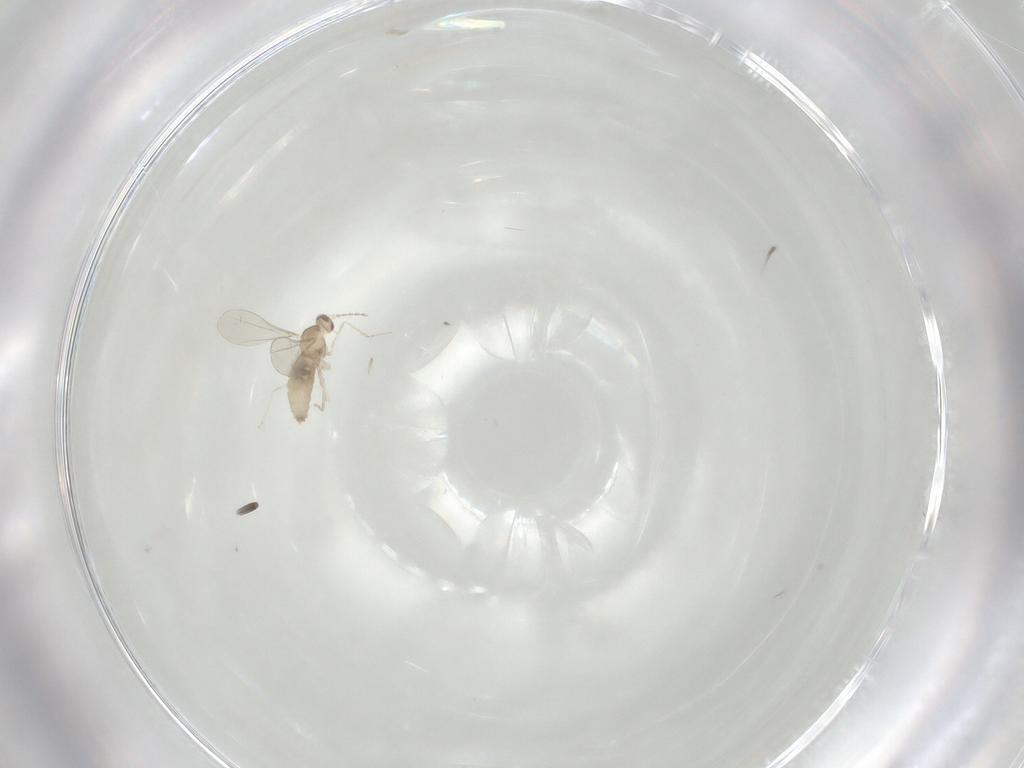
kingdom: Animalia
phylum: Arthropoda
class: Insecta
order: Diptera
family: Cecidomyiidae
